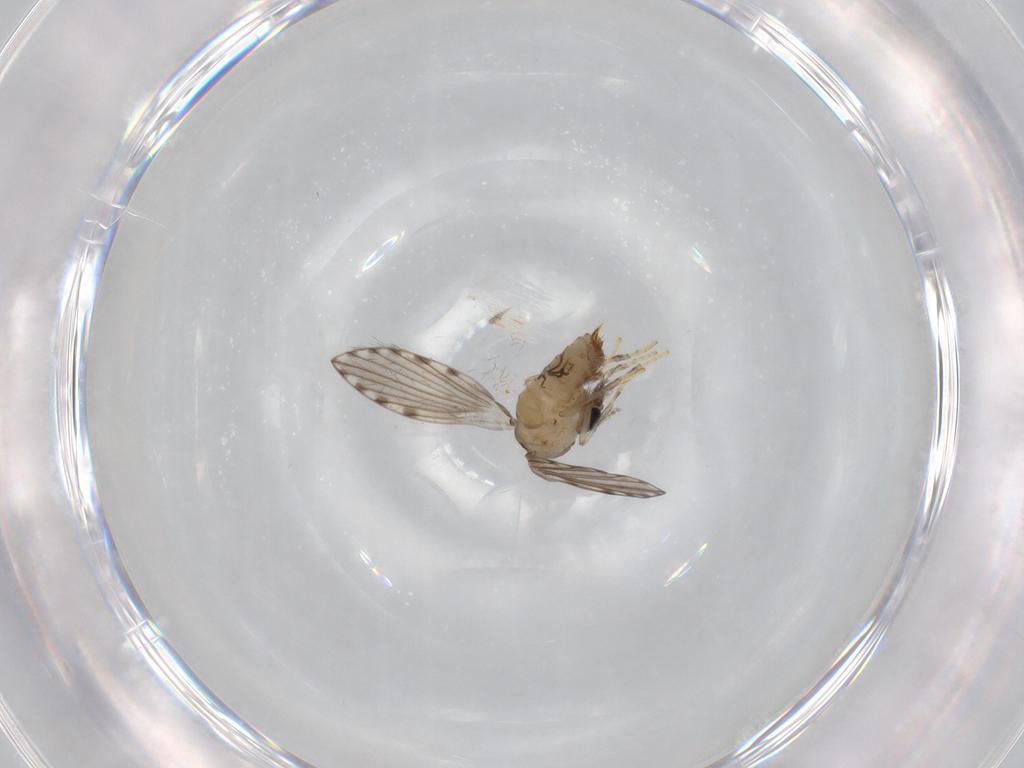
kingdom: Animalia
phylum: Arthropoda
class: Insecta
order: Diptera
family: Psychodidae
